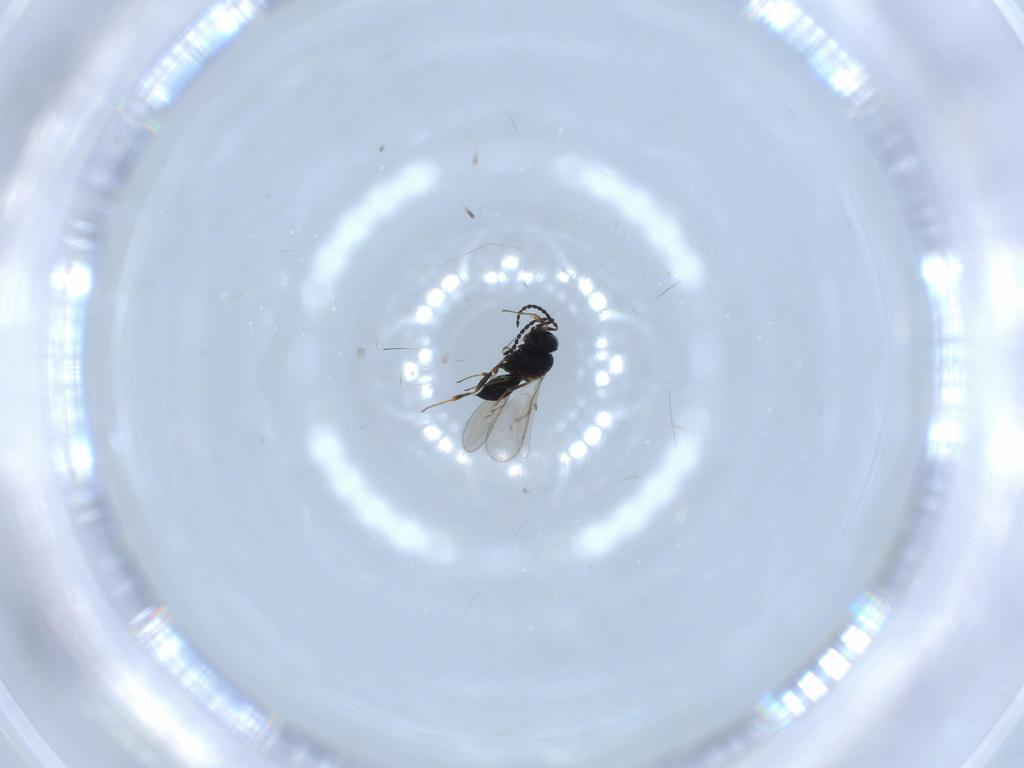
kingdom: Animalia
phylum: Arthropoda
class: Insecta
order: Hymenoptera
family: Scelionidae
